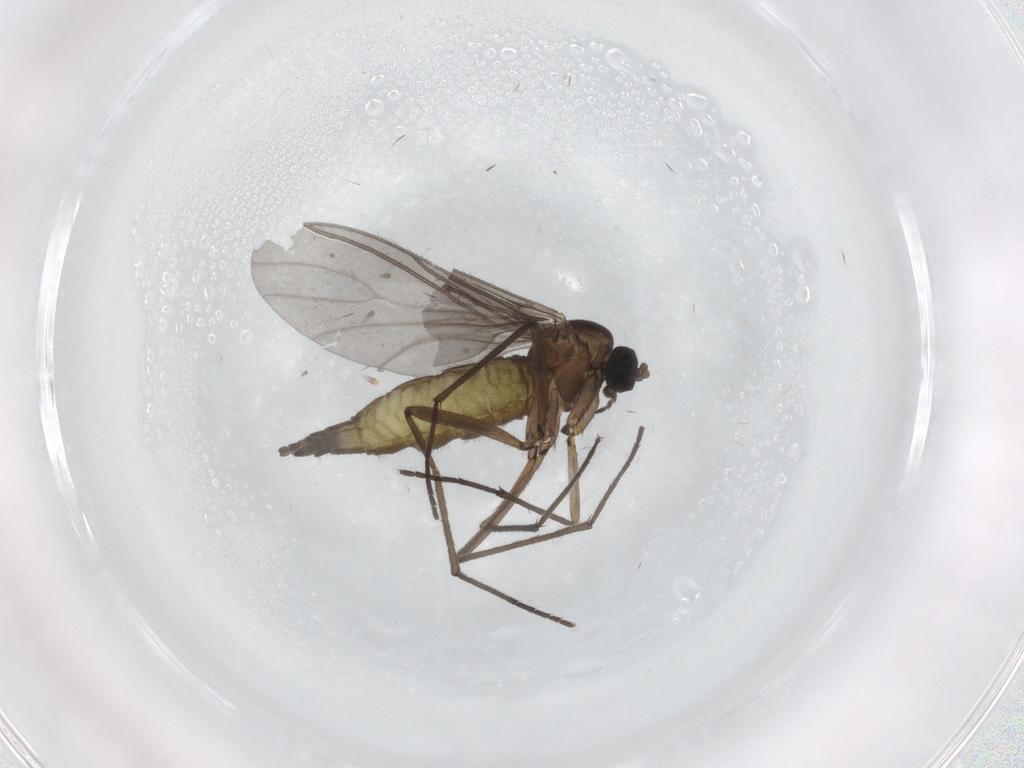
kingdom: Animalia
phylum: Arthropoda
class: Insecta
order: Diptera
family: Sciaridae
